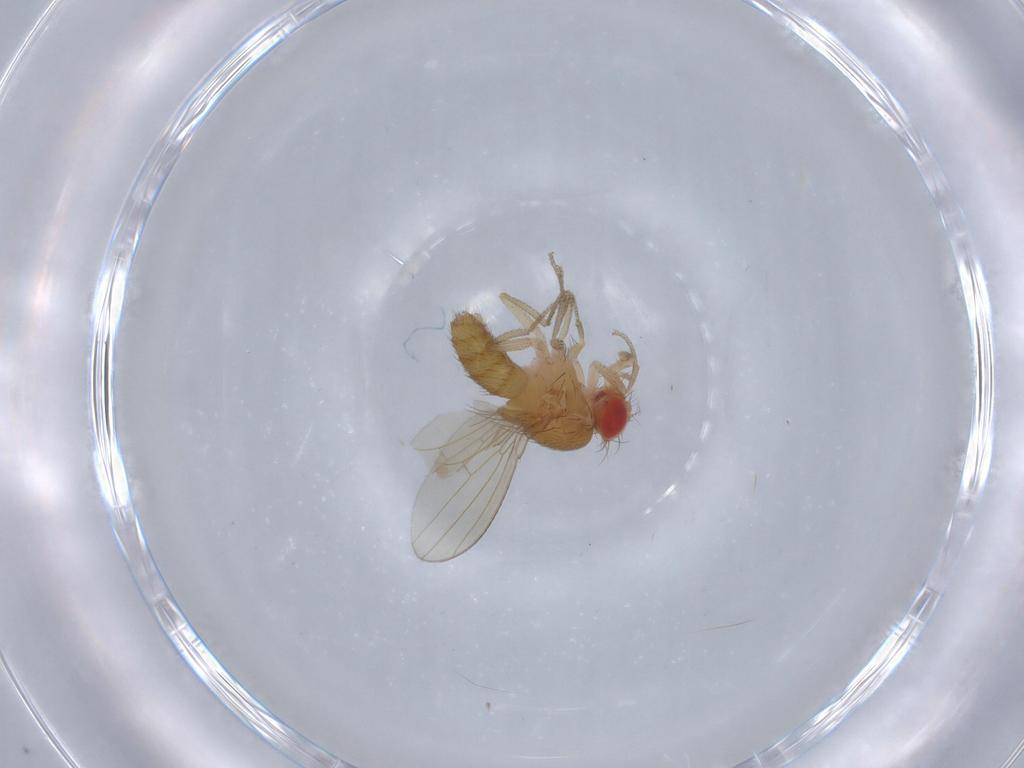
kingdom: Animalia
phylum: Arthropoda
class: Insecta
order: Diptera
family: Drosophilidae
